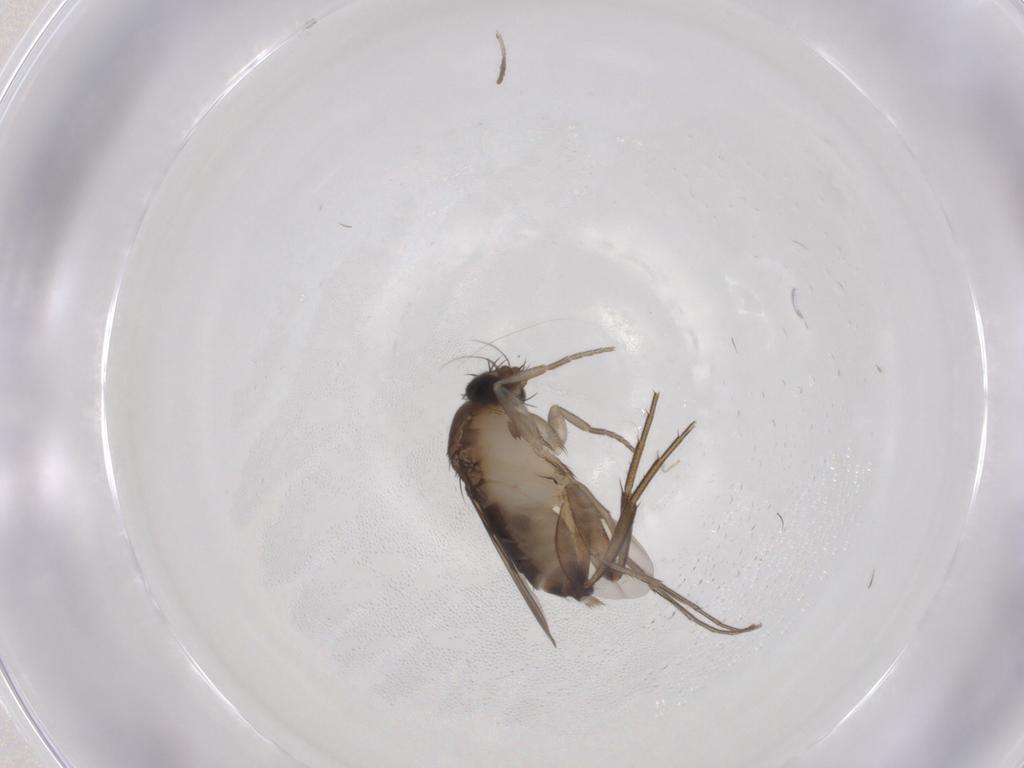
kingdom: Animalia
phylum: Arthropoda
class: Insecta
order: Diptera
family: Phoridae
